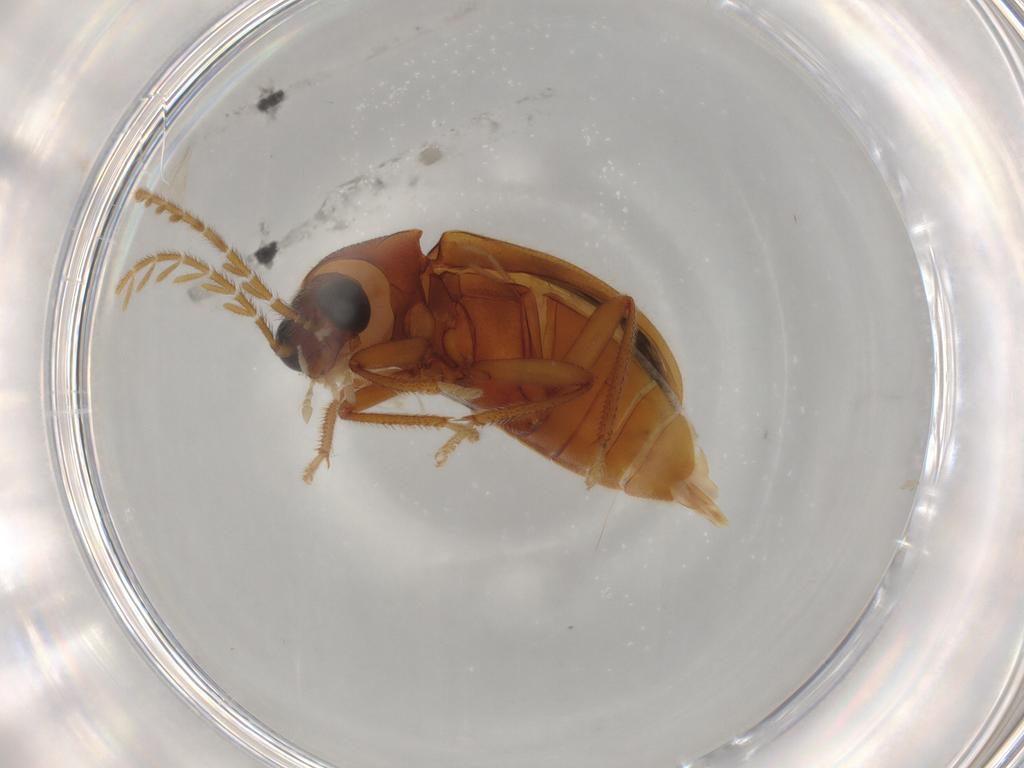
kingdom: Animalia
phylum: Arthropoda
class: Insecta
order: Coleoptera
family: Ptilodactylidae
